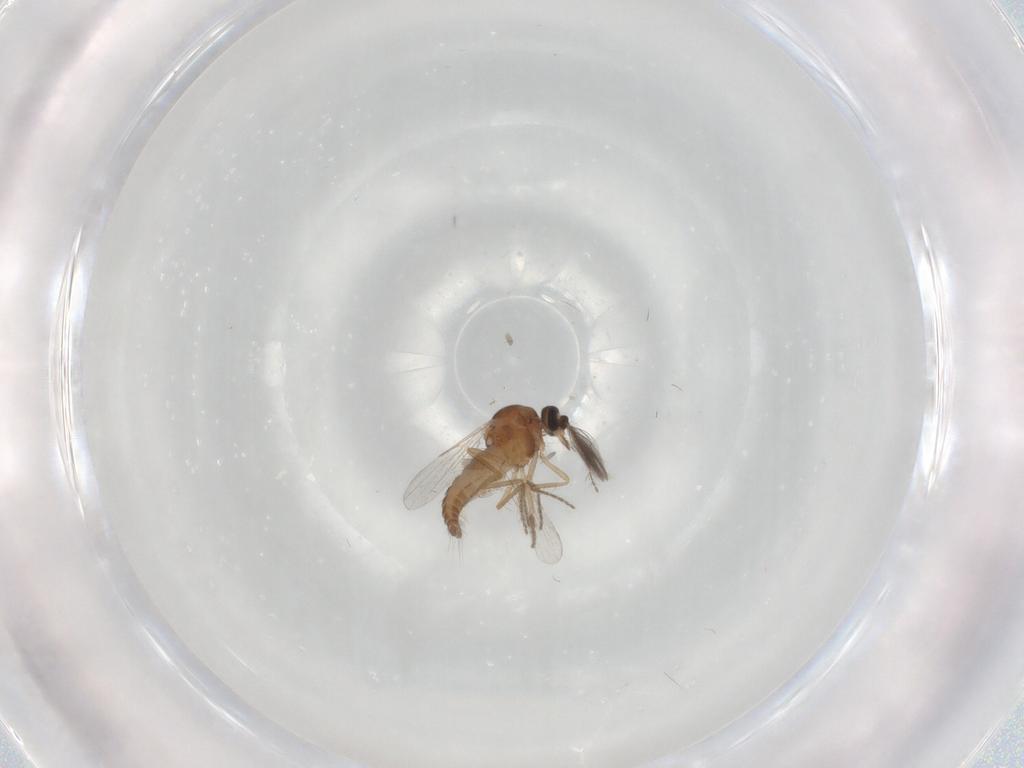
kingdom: Animalia
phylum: Arthropoda
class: Insecta
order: Diptera
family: Ceratopogonidae
